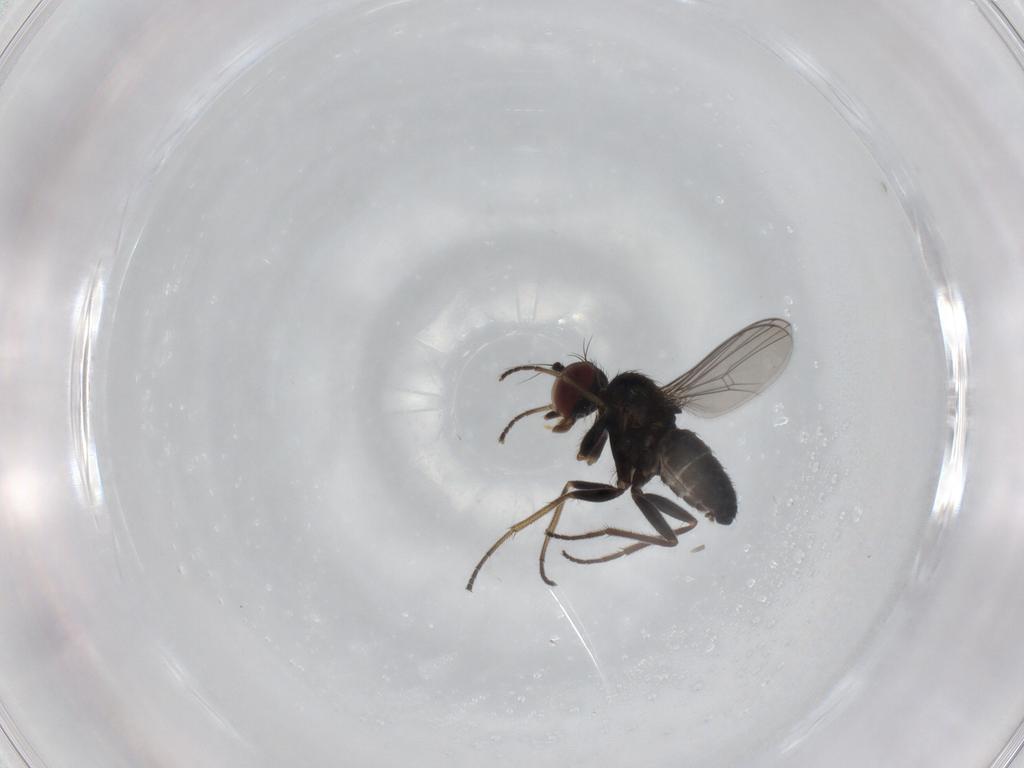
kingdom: Animalia
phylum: Arthropoda
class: Insecta
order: Diptera
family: Dolichopodidae
